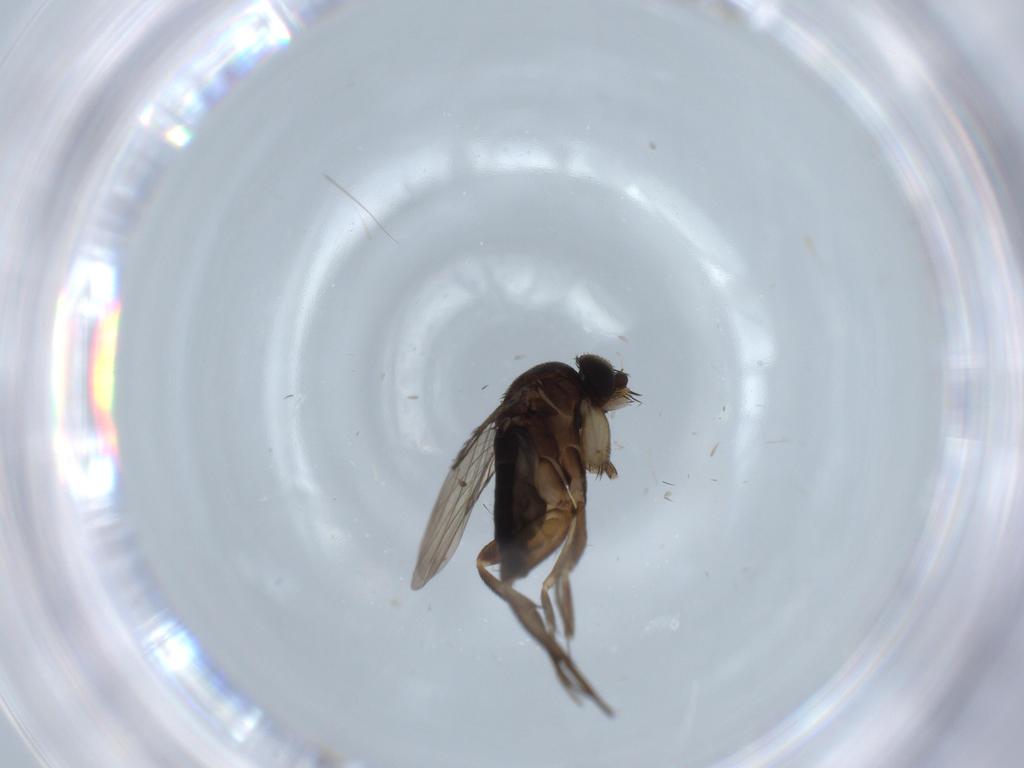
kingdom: Animalia
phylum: Arthropoda
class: Insecta
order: Diptera
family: Phoridae
